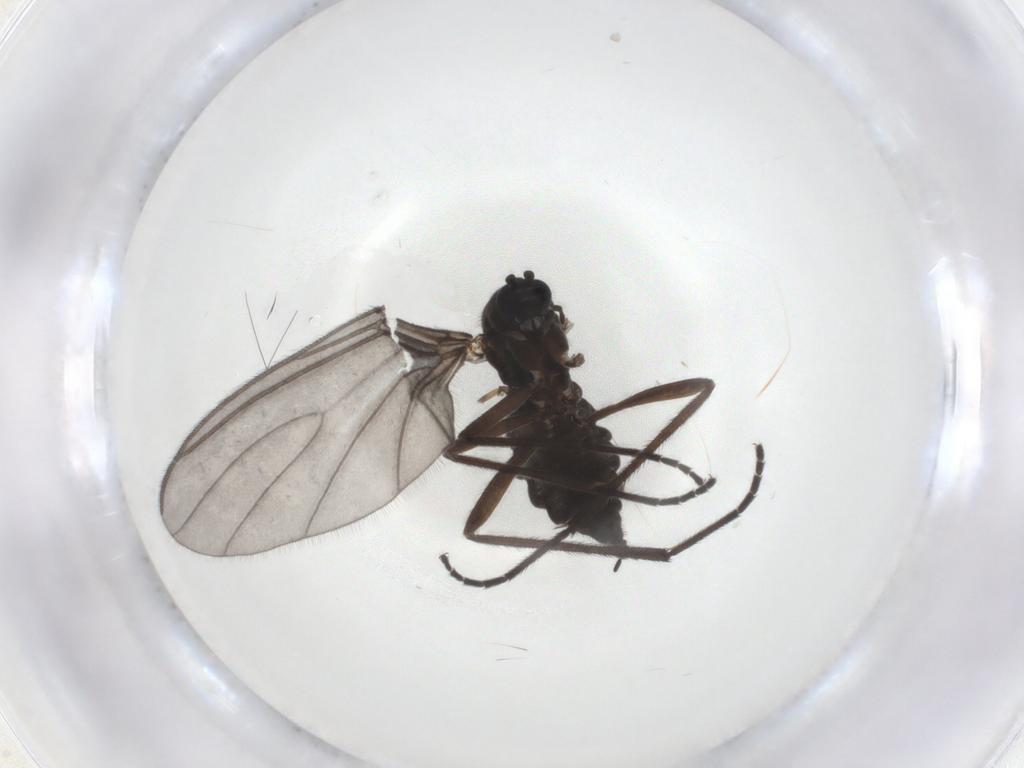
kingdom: Animalia
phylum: Arthropoda
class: Insecta
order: Diptera
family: Sciaridae
